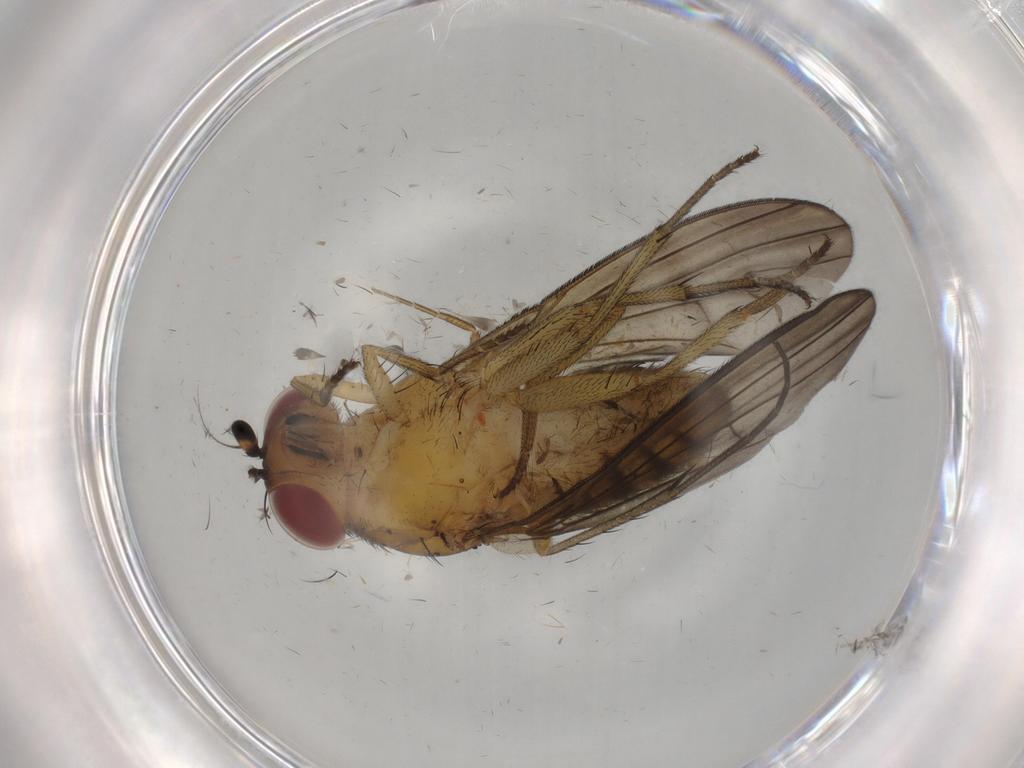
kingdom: Animalia
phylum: Arthropoda
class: Insecta
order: Diptera
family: Limoniidae
